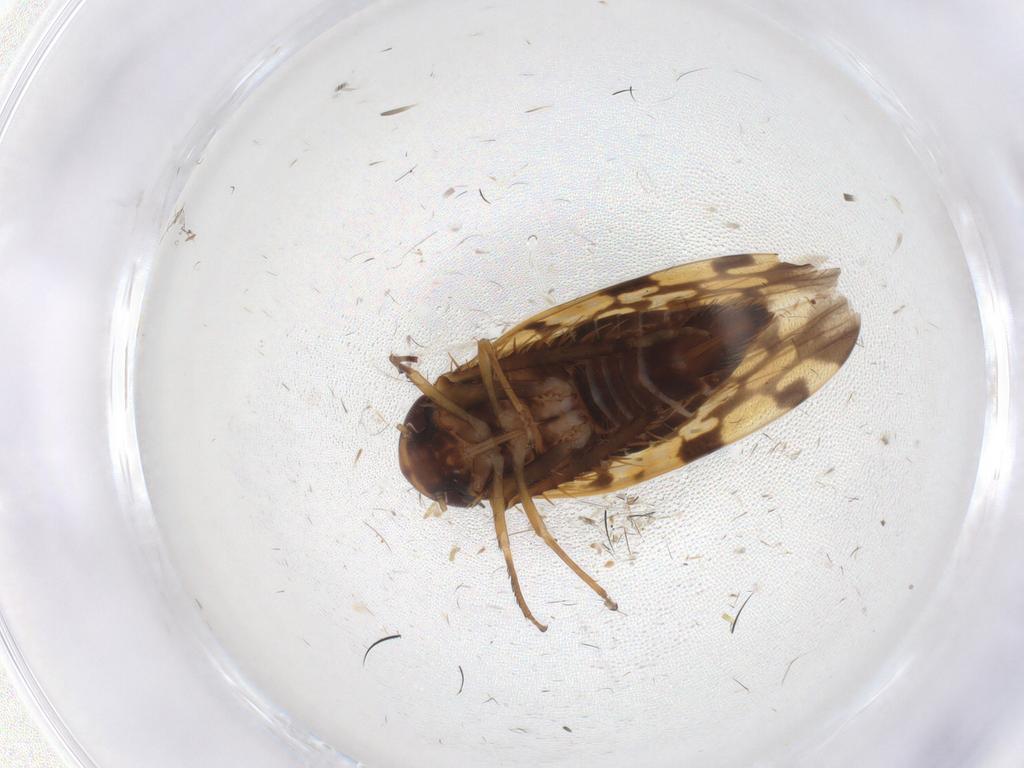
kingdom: Animalia
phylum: Arthropoda
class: Insecta
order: Hemiptera
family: Cicadellidae
